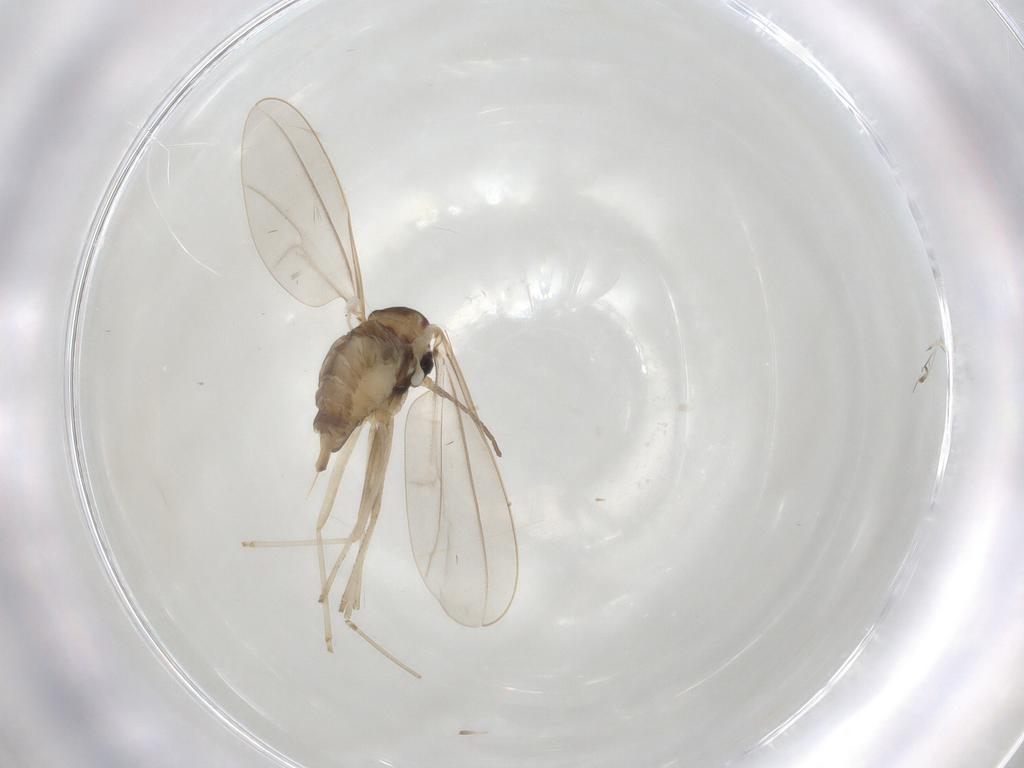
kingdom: Animalia
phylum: Arthropoda
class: Insecta
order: Diptera
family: Cecidomyiidae
